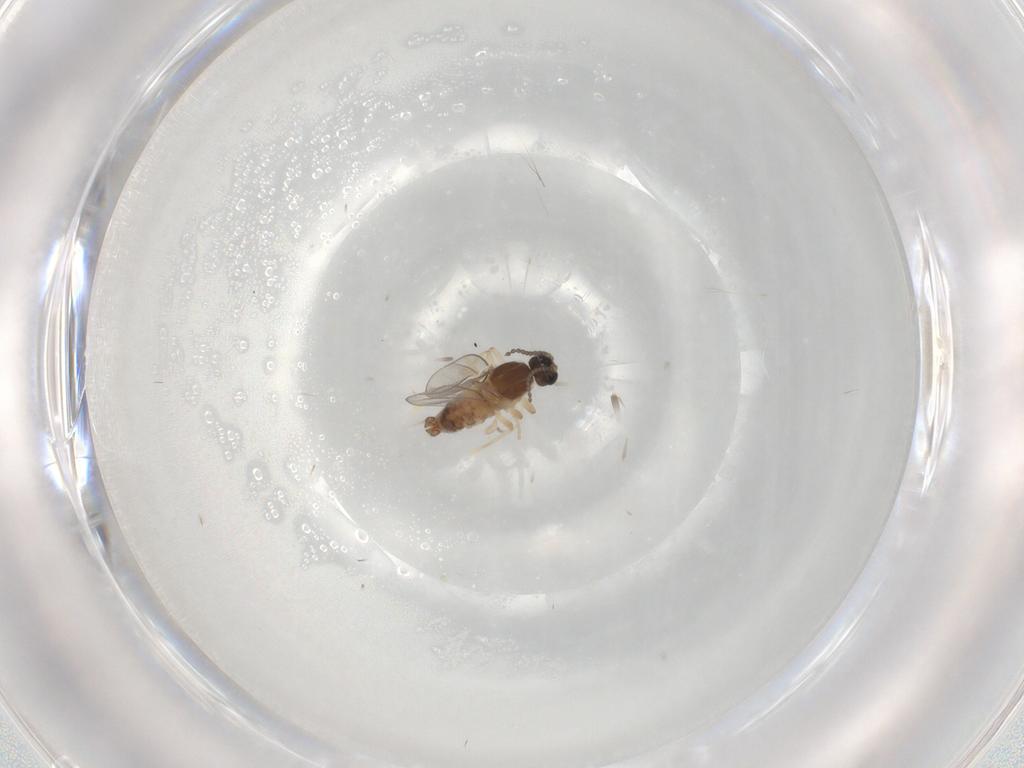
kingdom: Animalia
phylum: Arthropoda
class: Insecta
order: Diptera
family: Cecidomyiidae
